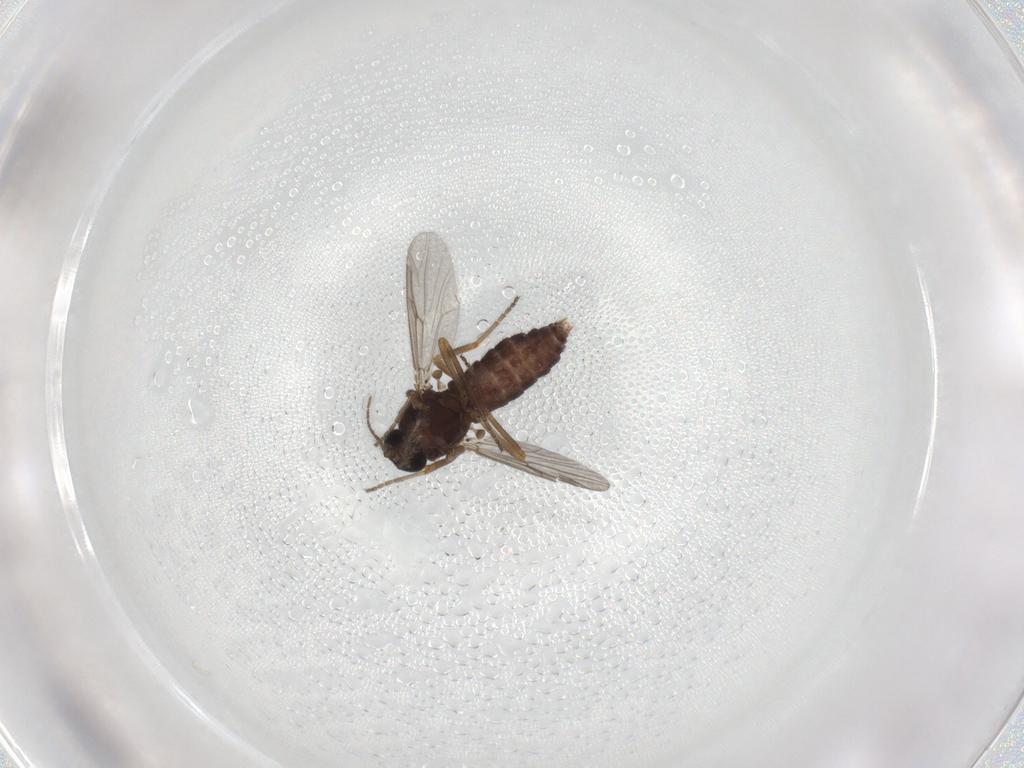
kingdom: Animalia
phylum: Arthropoda
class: Insecta
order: Diptera
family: Ceratopogonidae
